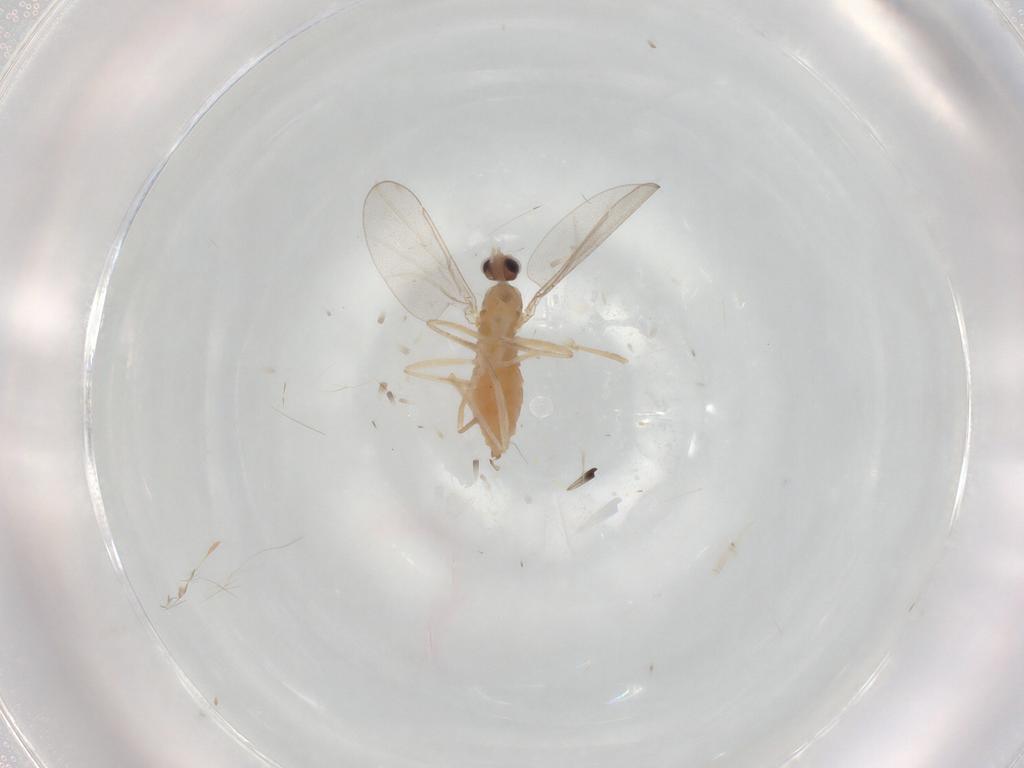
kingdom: Animalia
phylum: Arthropoda
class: Insecta
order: Diptera
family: Cecidomyiidae
